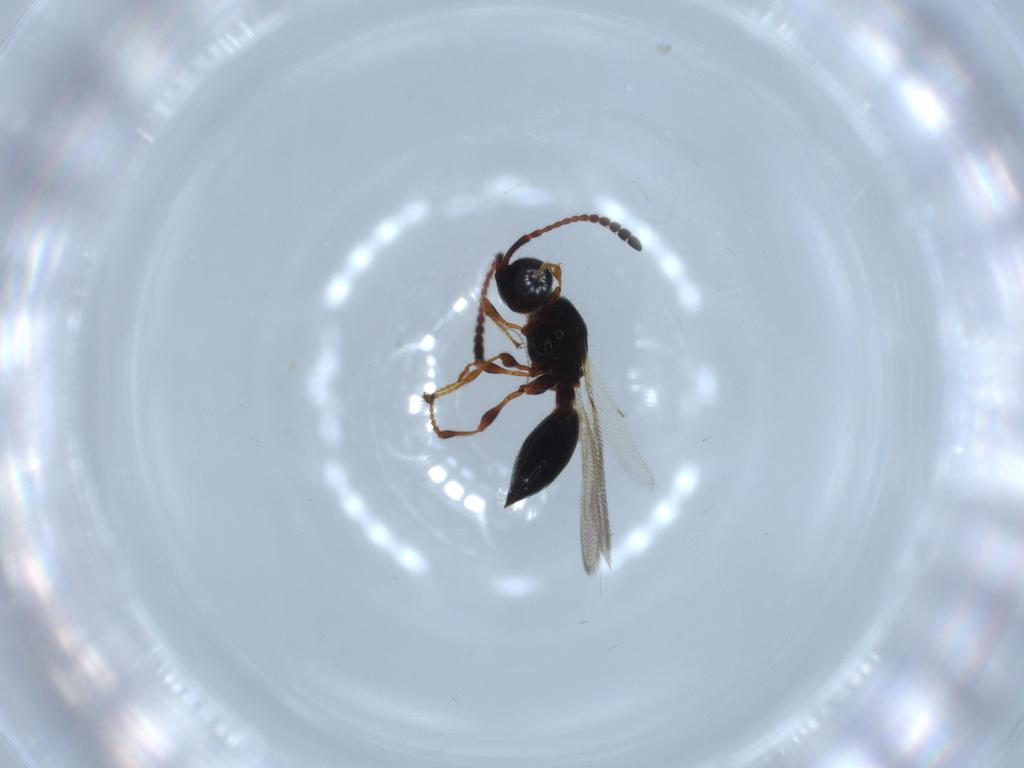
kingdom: Animalia
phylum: Arthropoda
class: Insecta
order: Hymenoptera
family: Diapriidae
